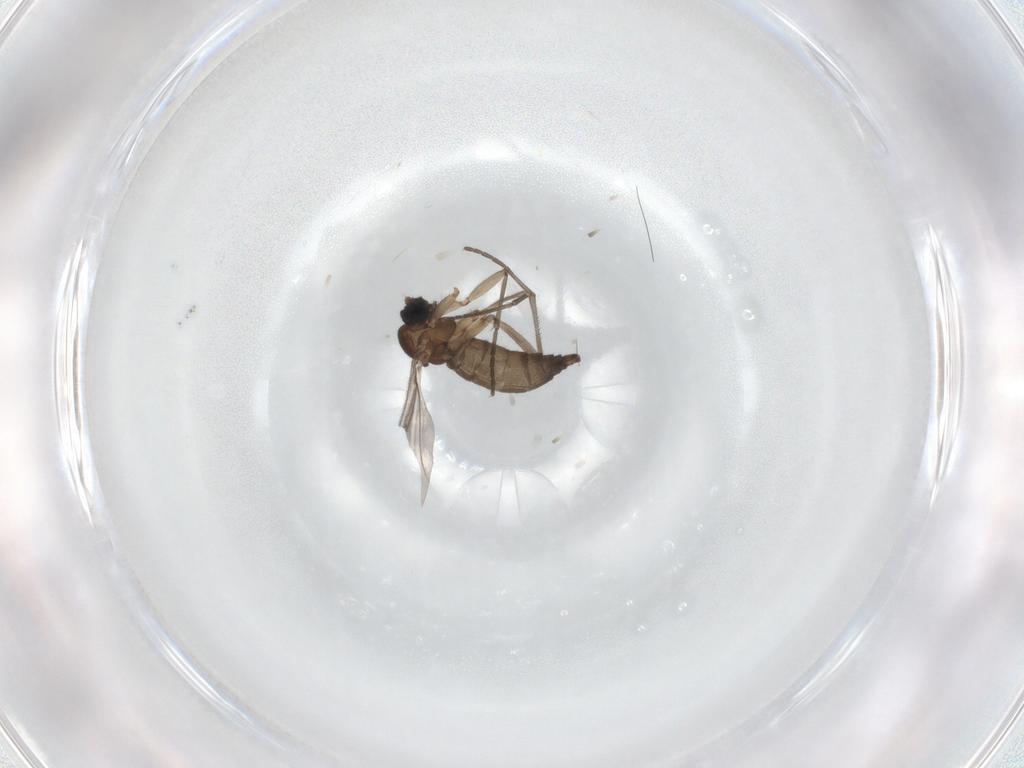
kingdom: Animalia
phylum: Arthropoda
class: Insecta
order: Diptera
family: Sciaridae
